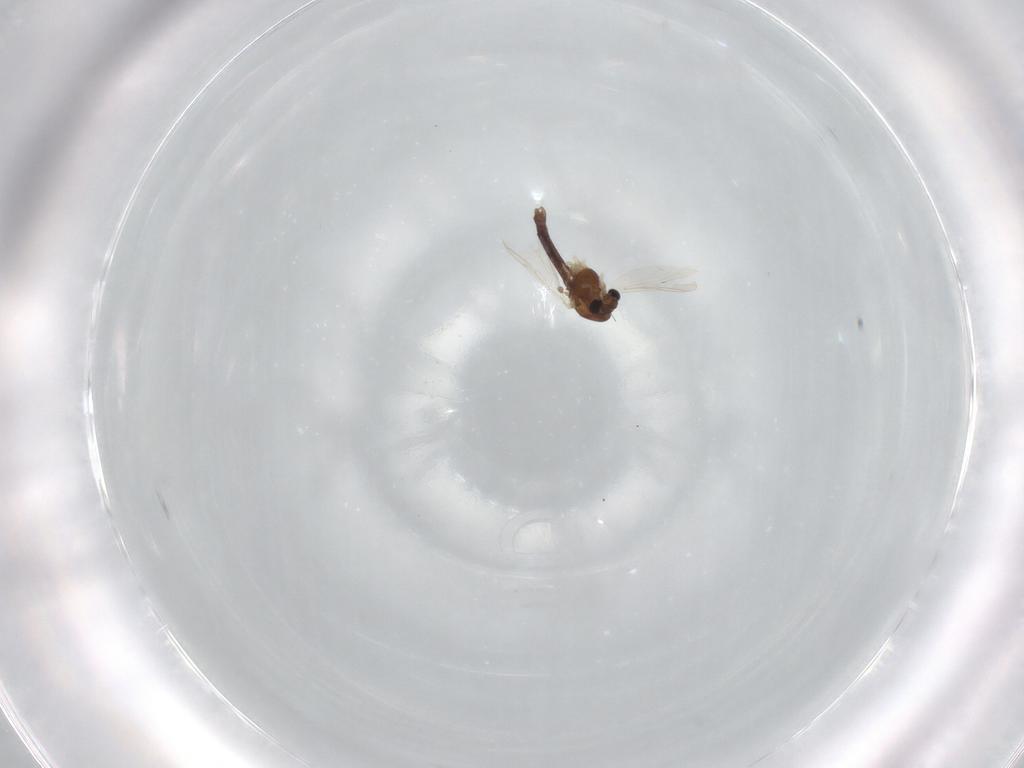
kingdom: Animalia
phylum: Arthropoda
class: Insecta
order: Diptera
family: Chironomidae
